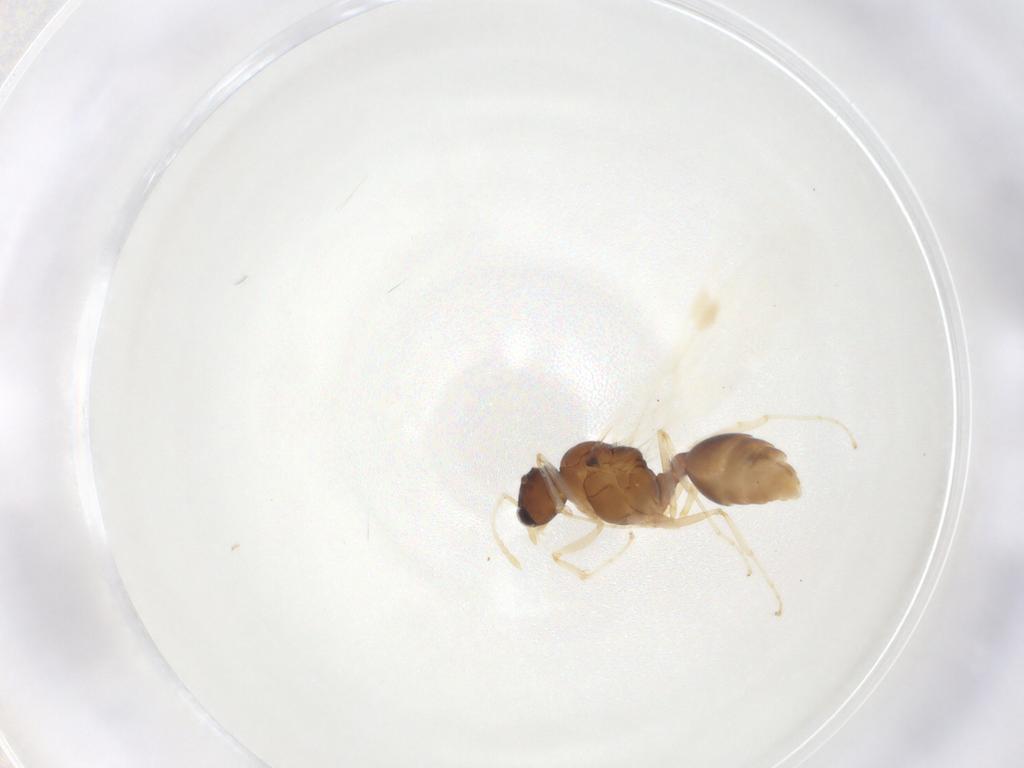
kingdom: Animalia
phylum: Arthropoda
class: Insecta
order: Hymenoptera
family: Formicidae
